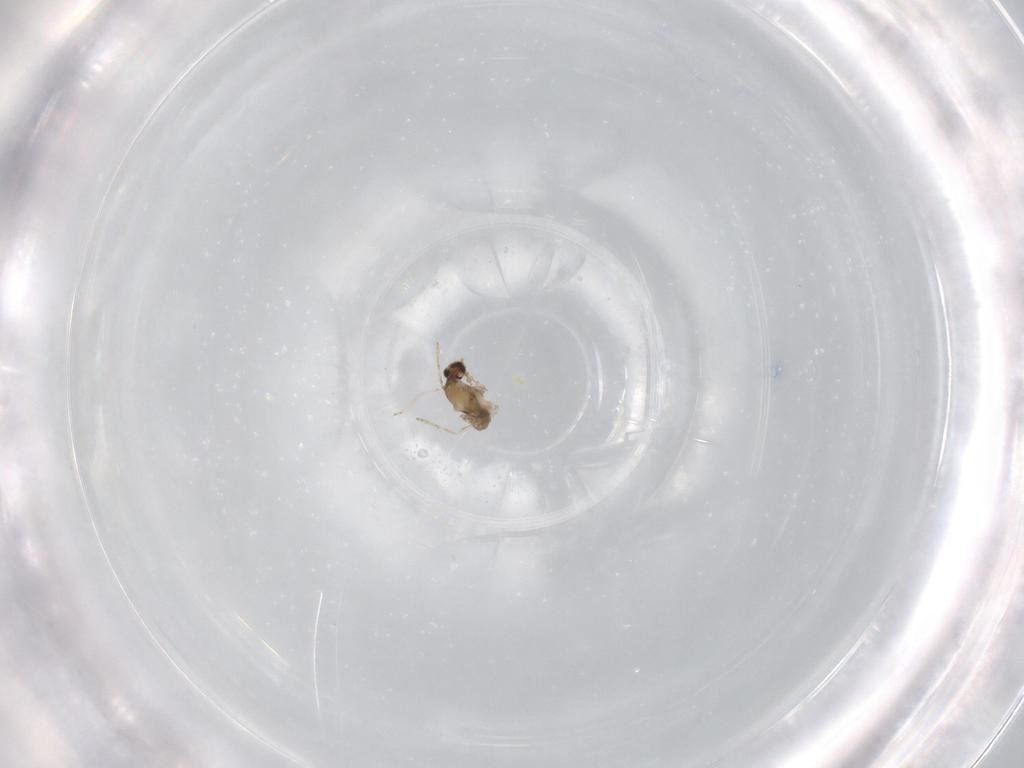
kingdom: Animalia
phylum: Arthropoda
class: Insecta
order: Diptera
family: Cecidomyiidae
